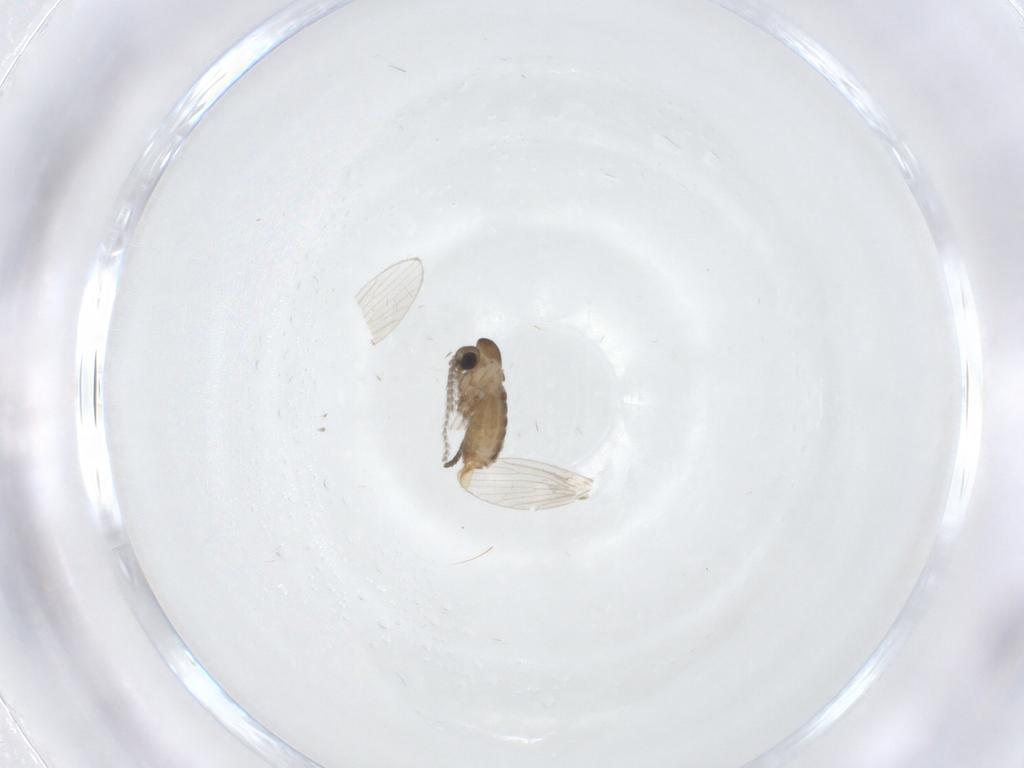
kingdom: Animalia
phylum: Arthropoda
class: Insecta
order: Diptera
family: Psychodidae
